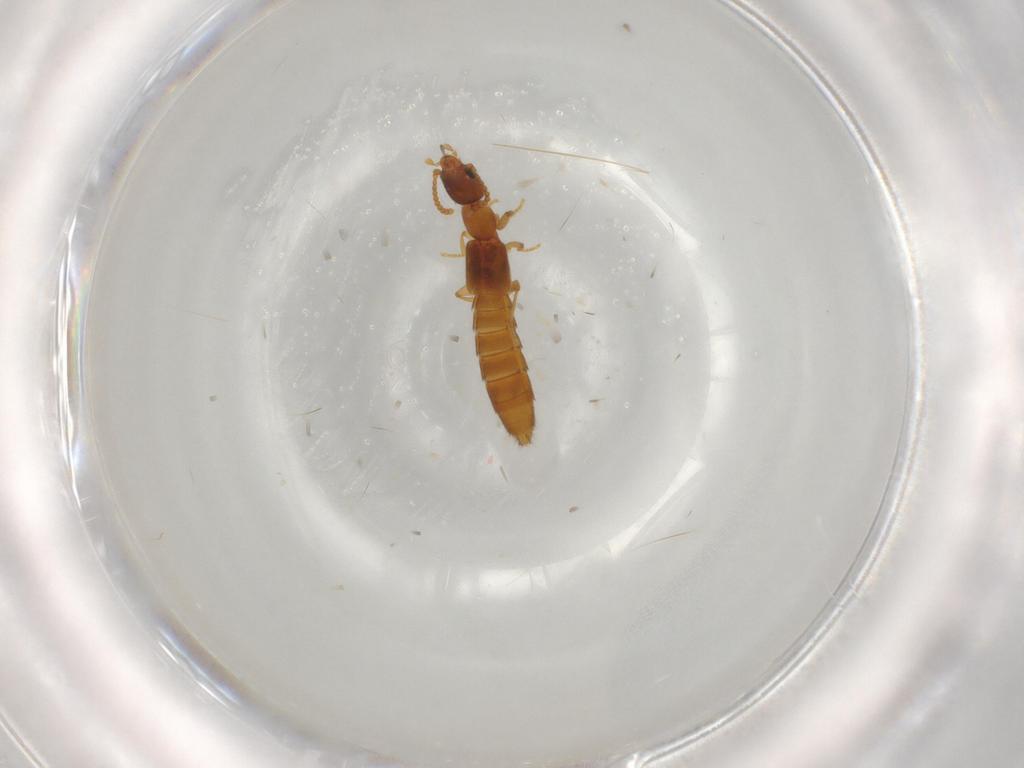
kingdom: Animalia
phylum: Arthropoda
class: Insecta
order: Coleoptera
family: Staphylinidae
